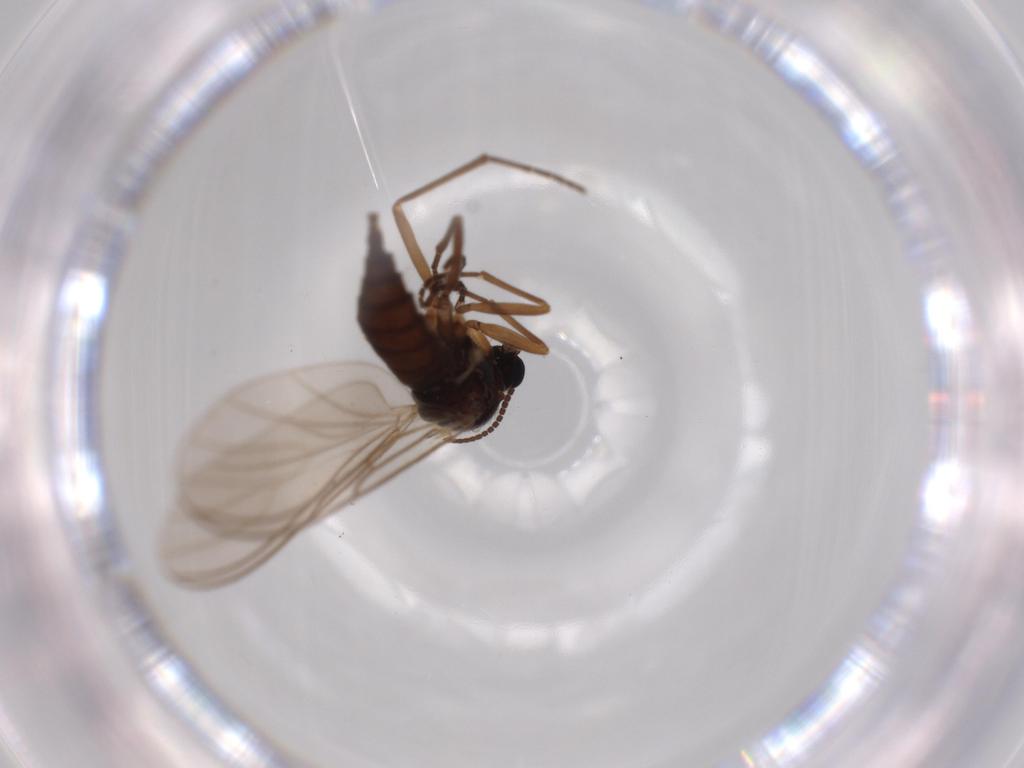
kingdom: Animalia
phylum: Arthropoda
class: Insecta
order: Diptera
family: Sciaridae
